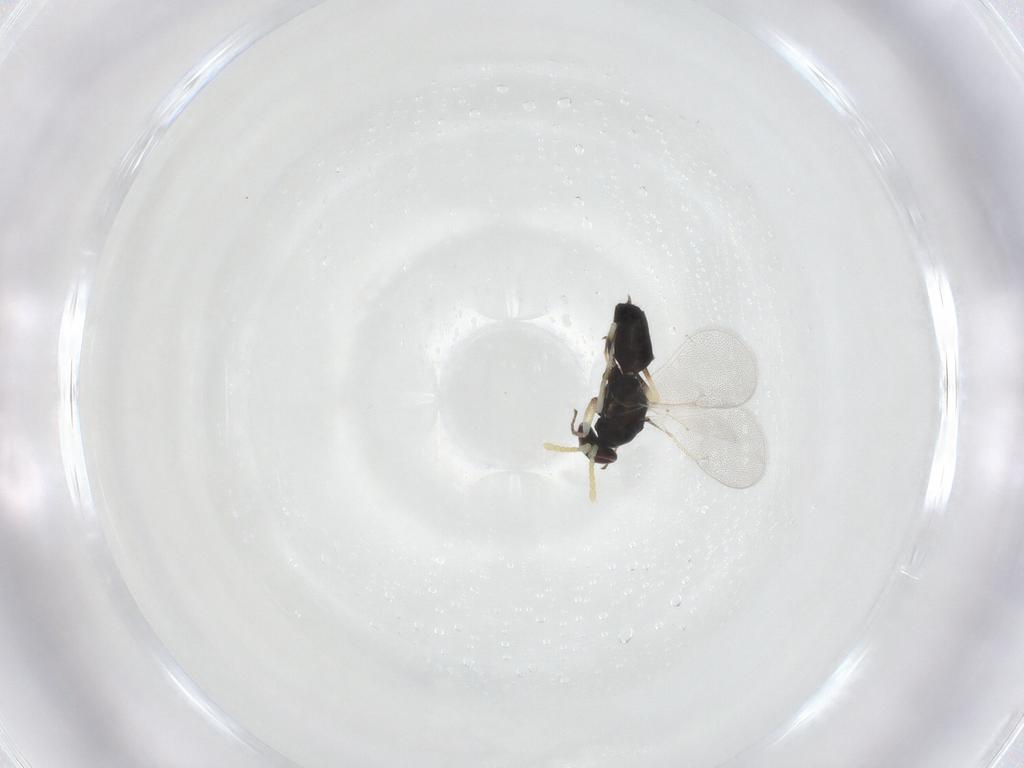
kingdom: Animalia
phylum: Arthropoda
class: Insecta
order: Hymenoptera
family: Eulophidae
